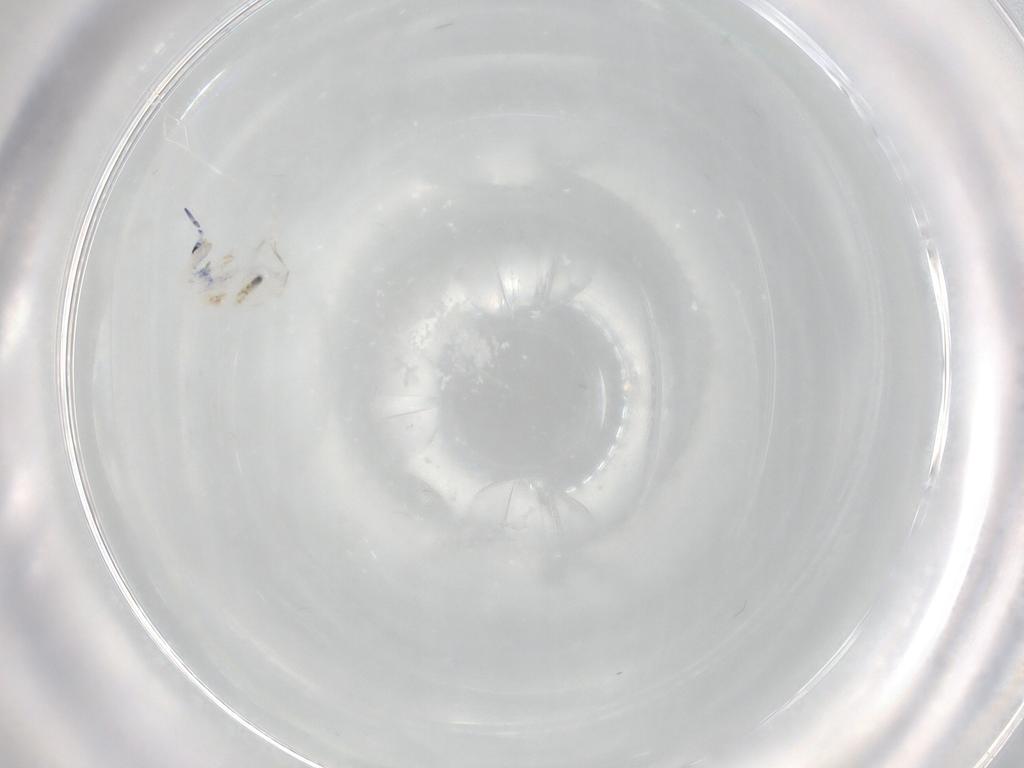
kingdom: Animalia
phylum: Arthropoda
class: Collembola
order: Entomobryomorpha
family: Entomobryidae
